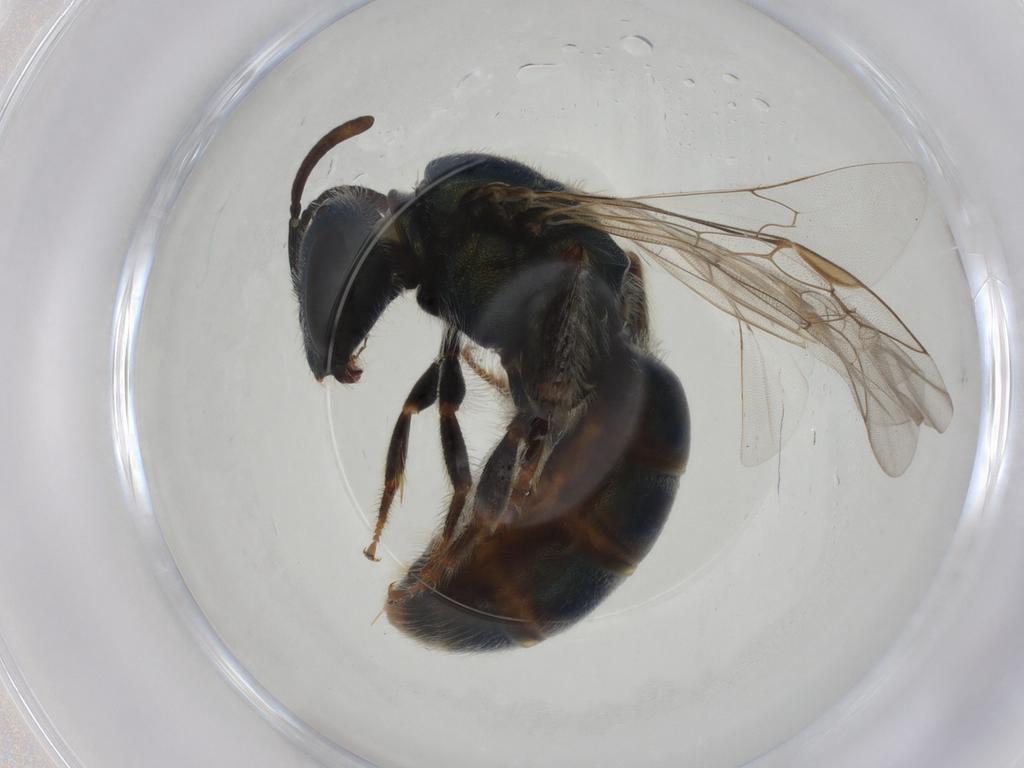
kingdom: Animalia
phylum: Arthropoda
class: Insecta
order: Hymenoptera
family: Halictidae
